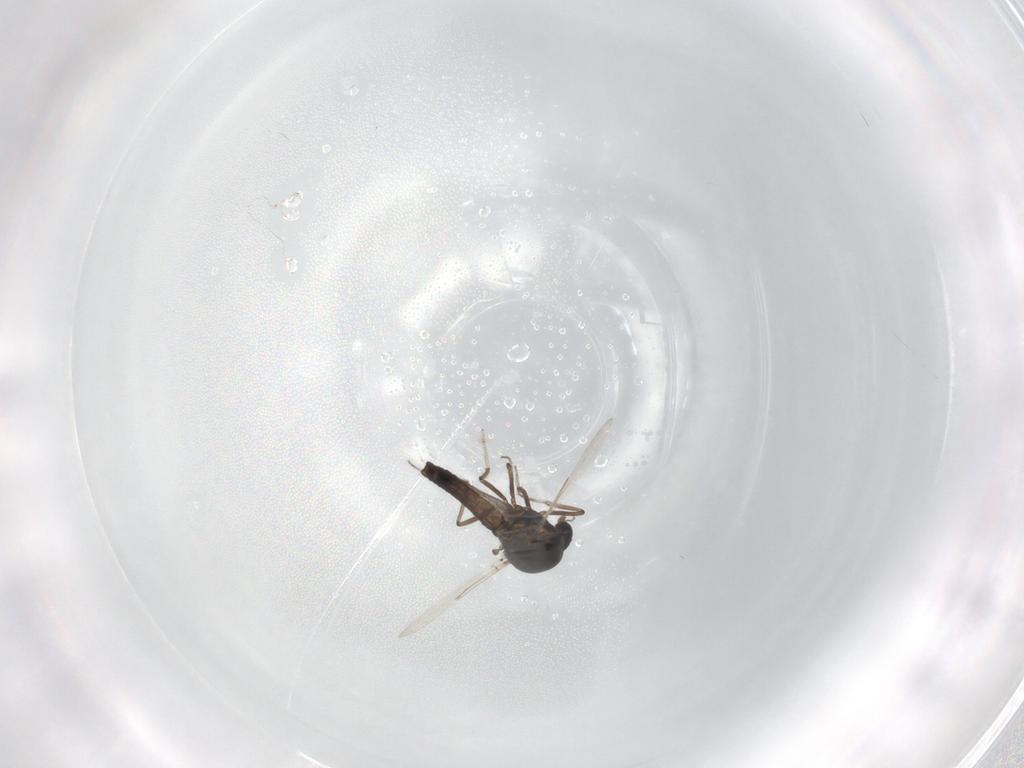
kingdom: Animalia
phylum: Arthropoda
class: Insecta
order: Diptera
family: Ceratopogonidae
